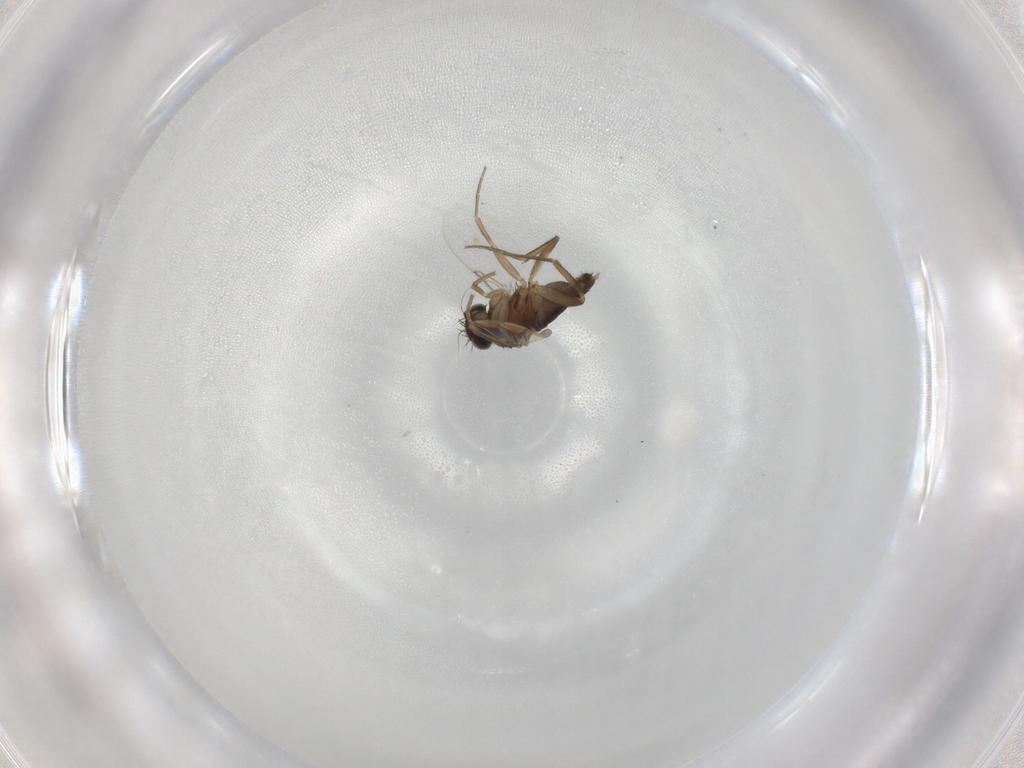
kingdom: Animalia
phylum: Arthropoda
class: Insecta
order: Diptera
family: Phoridae
